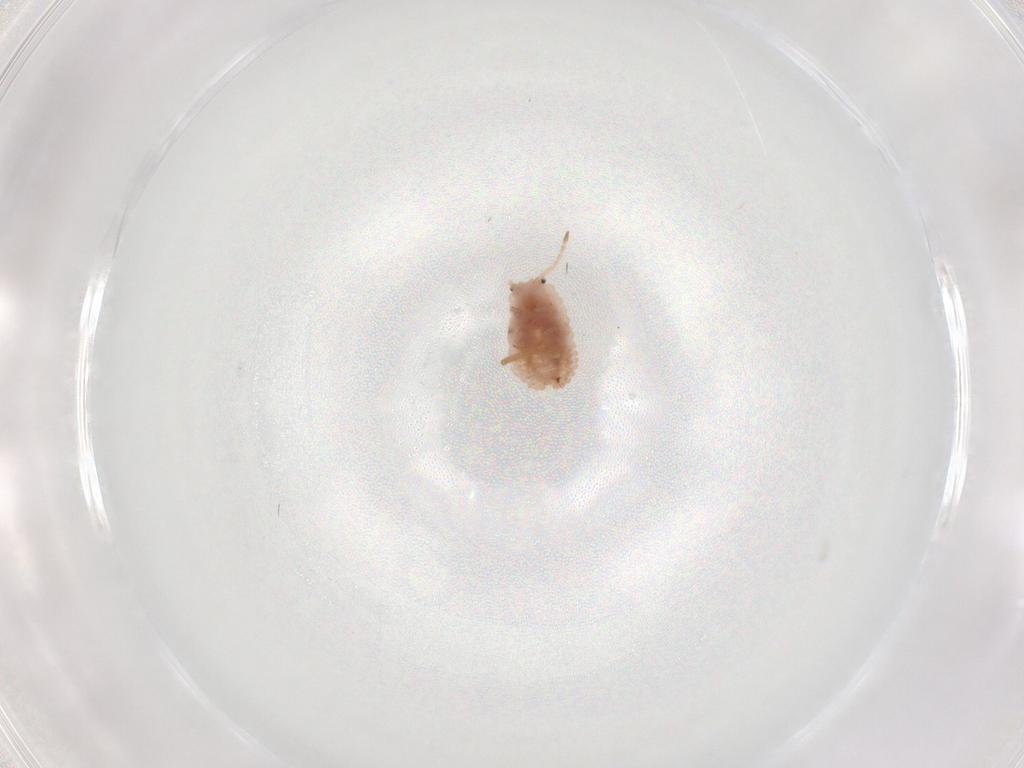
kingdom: Animalia
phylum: Arthropoda
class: Insecta
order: Hemiptera
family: Coccoidea_incertae_sedis
